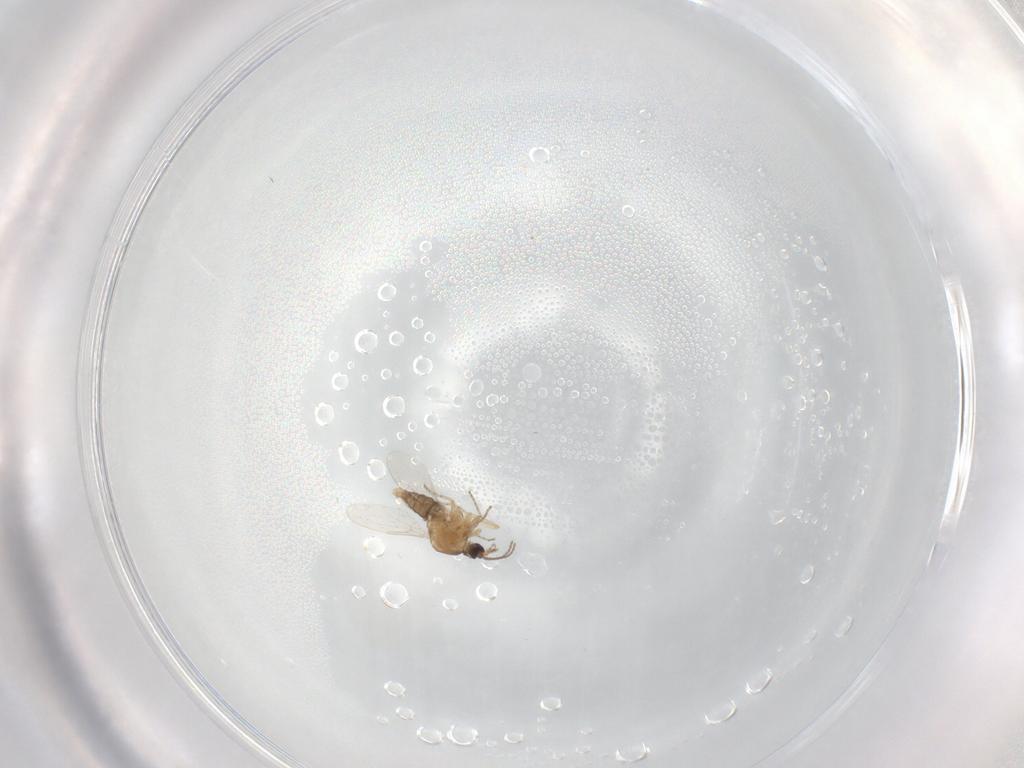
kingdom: Animalia
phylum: Arthropoda
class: Insecta
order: Diptera
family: Ceratopogonidae
